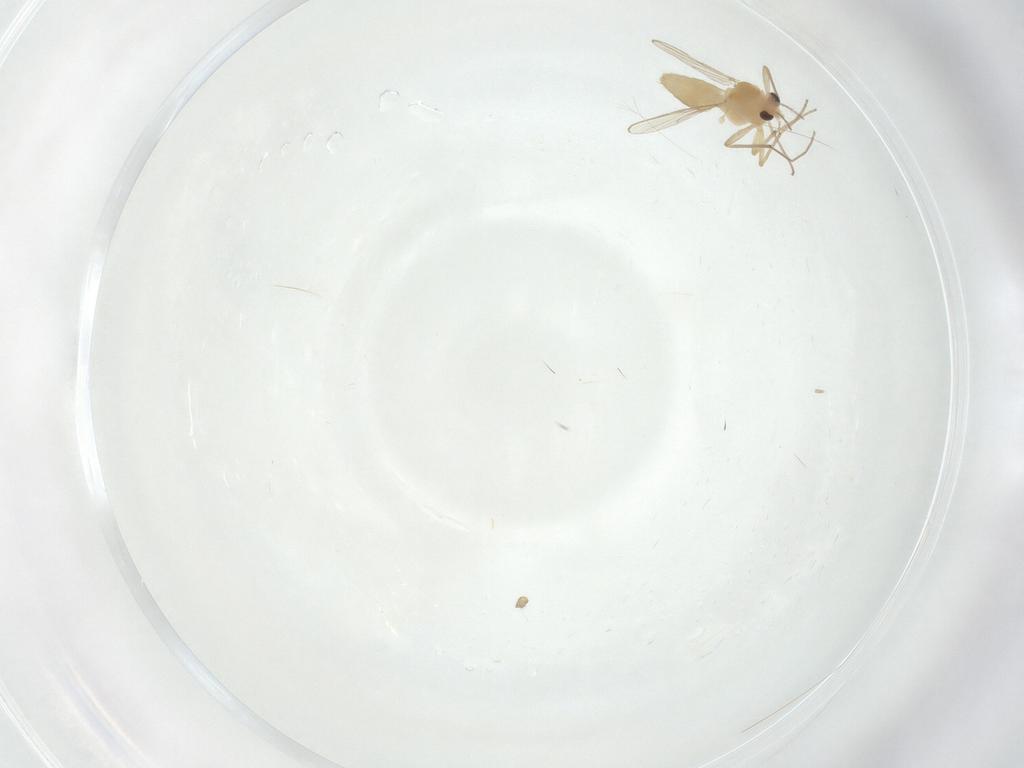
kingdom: Animalia
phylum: Arthropoda
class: Insecta
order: Diptera
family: Chironomidae
